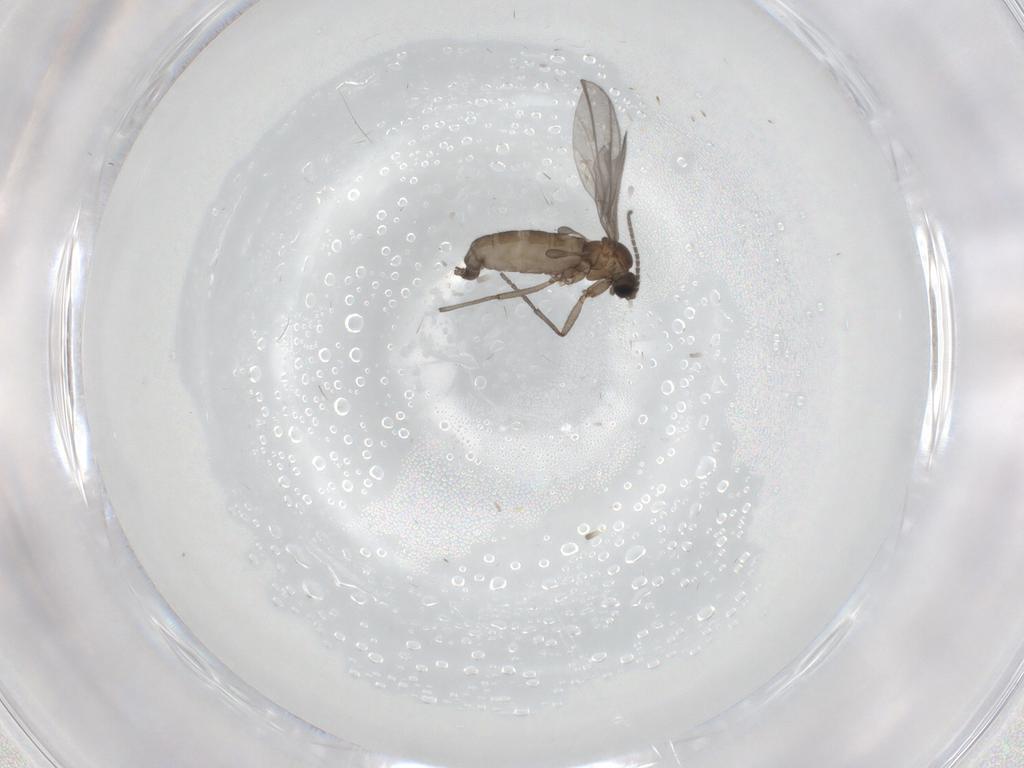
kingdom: Animalia
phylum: Arthropoda
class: Insecta
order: Diptera
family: Sciaridae
